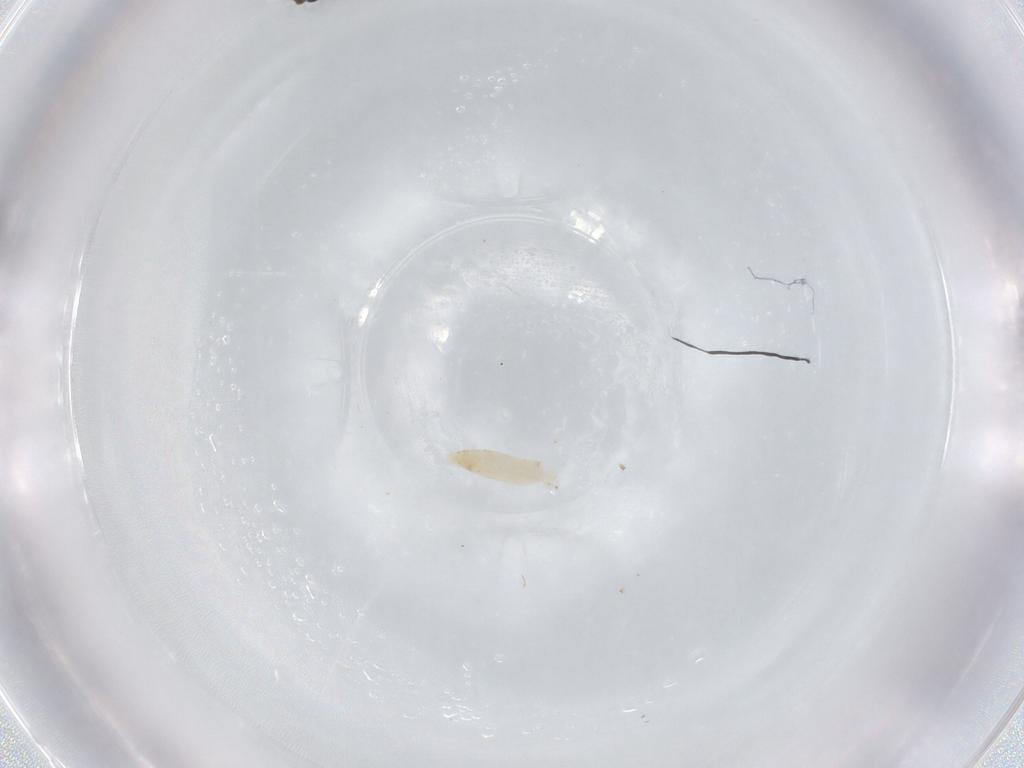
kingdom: Animalia
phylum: Arthropoda
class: Insecta
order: Hymenoptera
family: Formicidae
